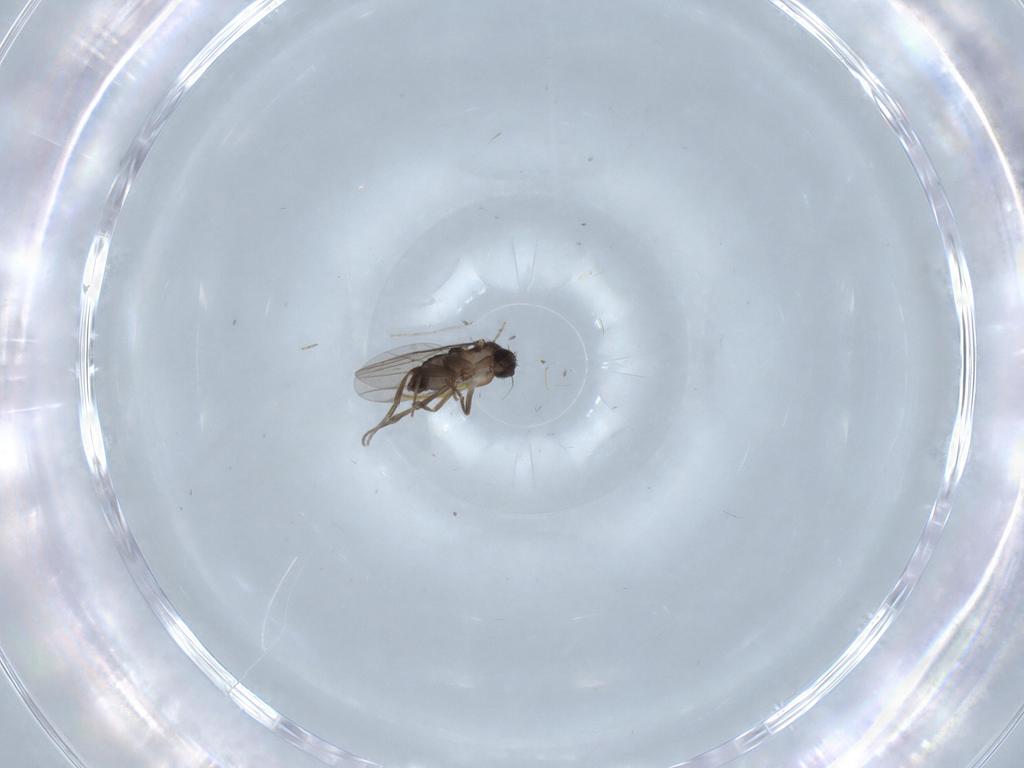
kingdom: Animalia
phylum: Arthropoda
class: Insecta
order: Diptera
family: Phoridae
